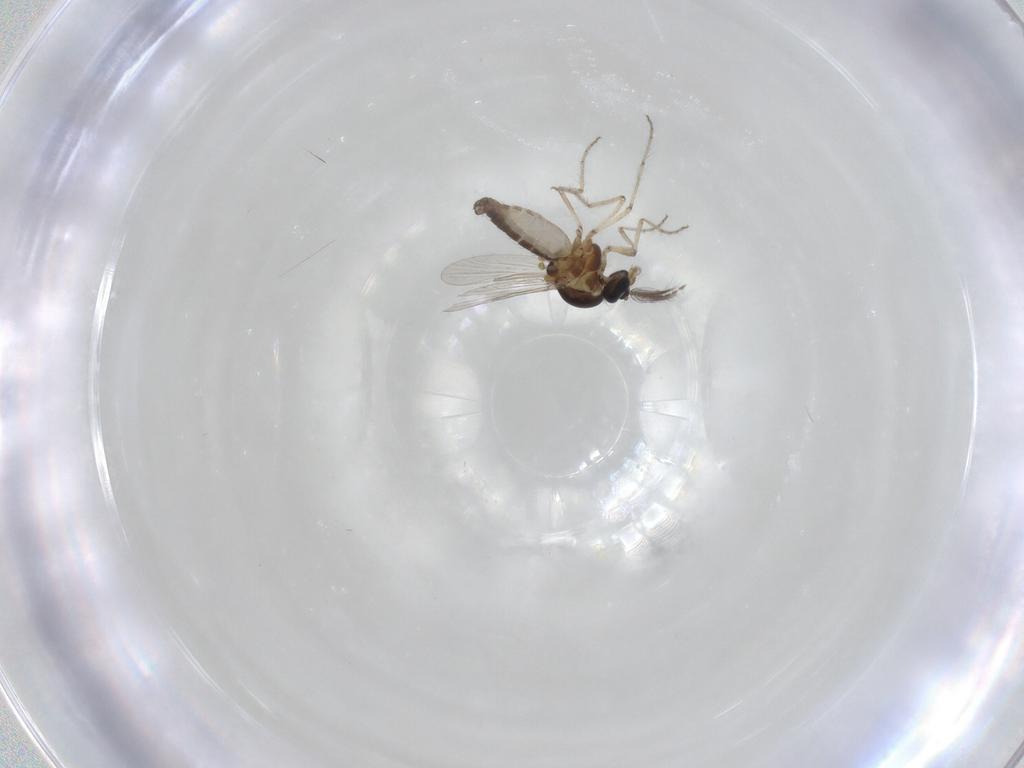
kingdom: Animalia
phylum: Arthropoda
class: Insecta
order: Diptera
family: Ceratopogonidae
